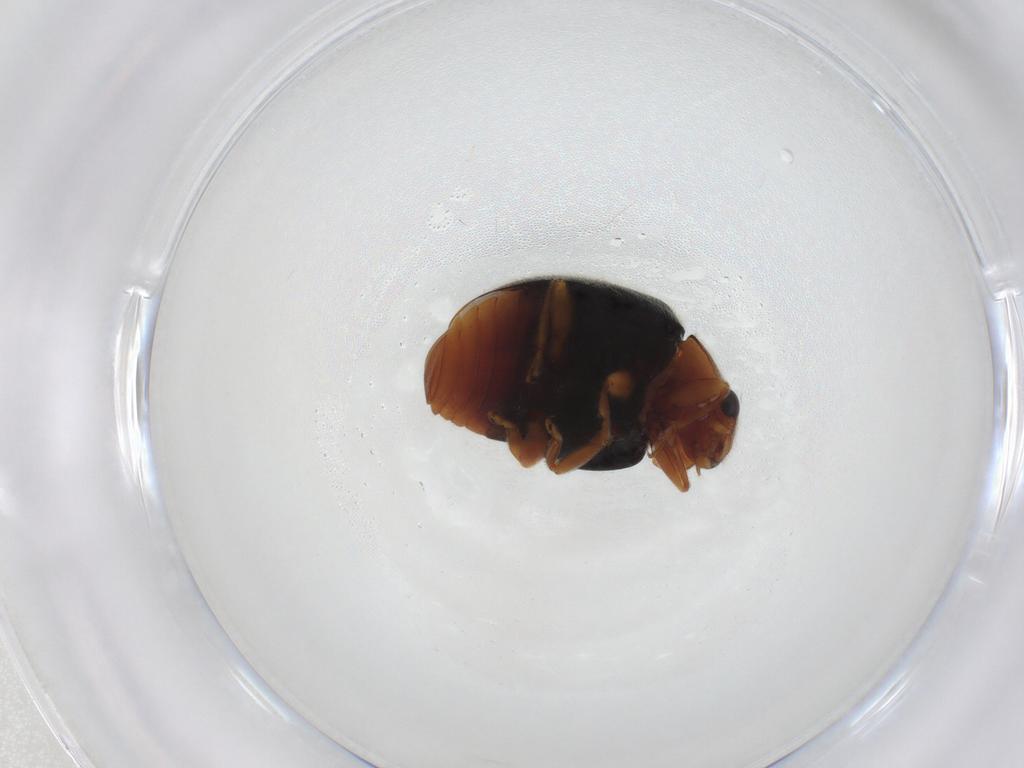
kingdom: Animalia
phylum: Arthropoda
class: Insecta
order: Coleoptera
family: Coccinellidae
